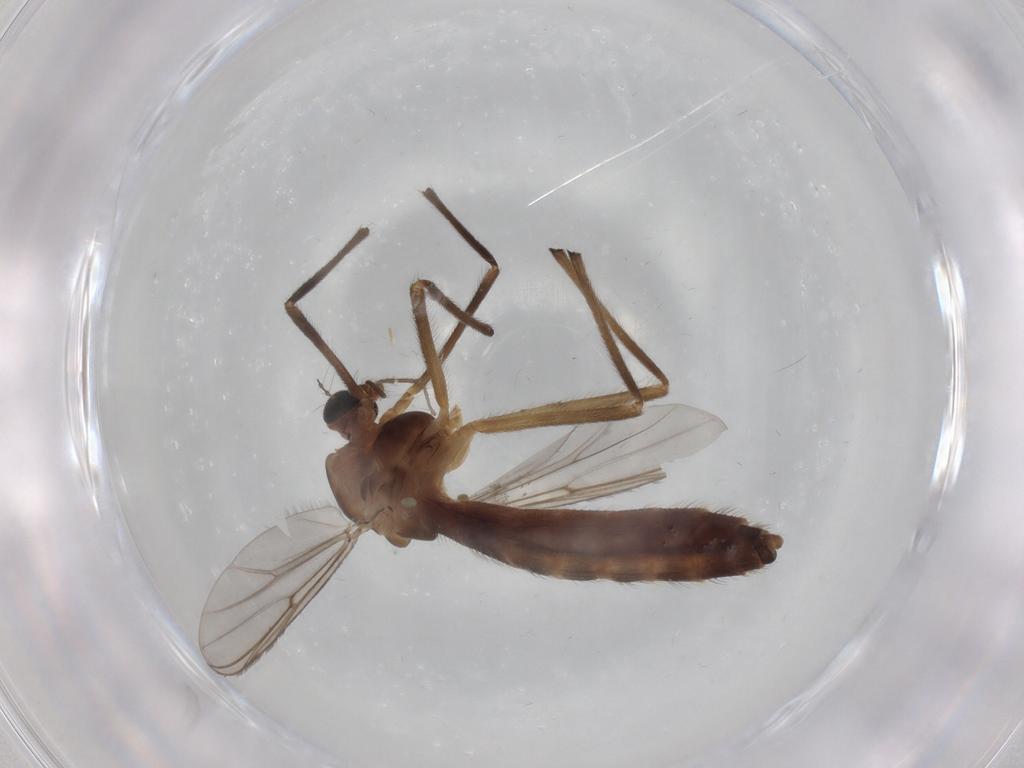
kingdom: Animalia
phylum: Arthropoda
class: Insecta
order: Diptera
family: Chironomidae
